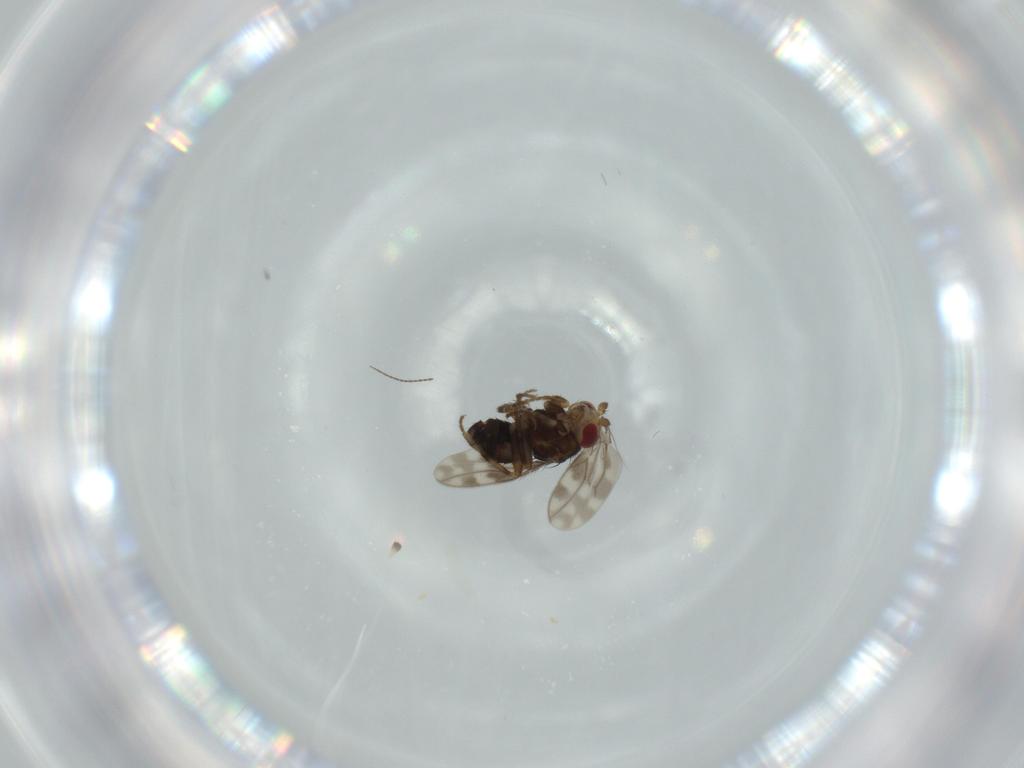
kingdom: Animalia
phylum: Arthropoda
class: Insecta
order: Diptera
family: Sphaeroceridae
